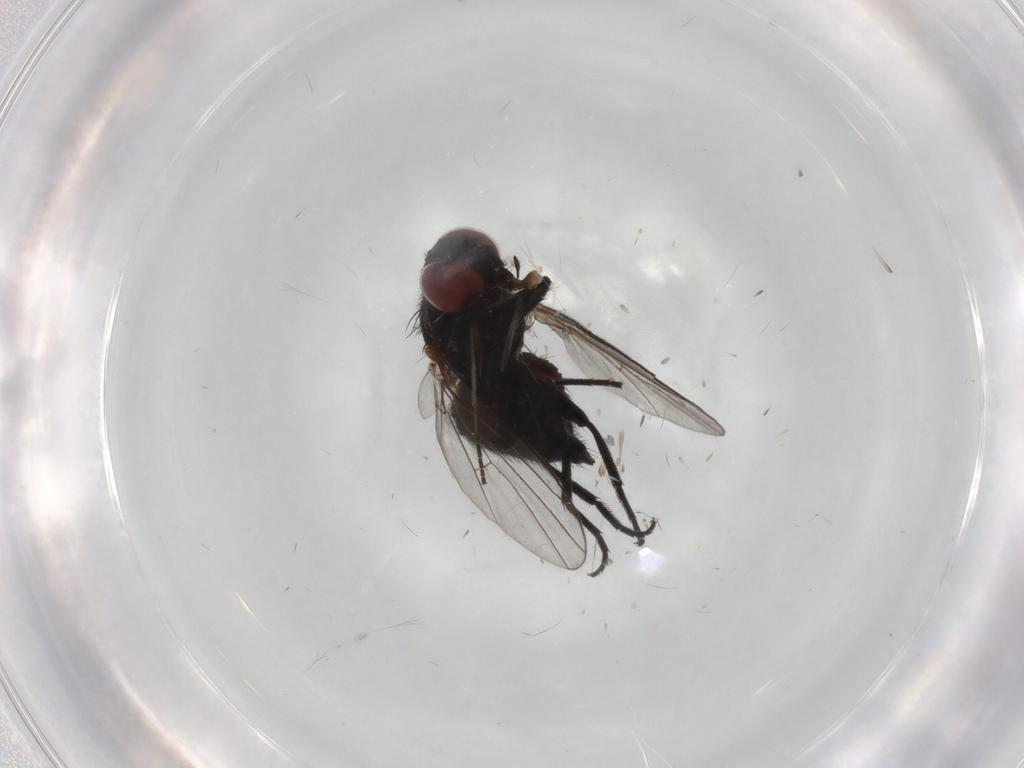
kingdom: Animalia
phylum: Arthropoda
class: Insecta
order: Diptera
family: Agromyzidae
